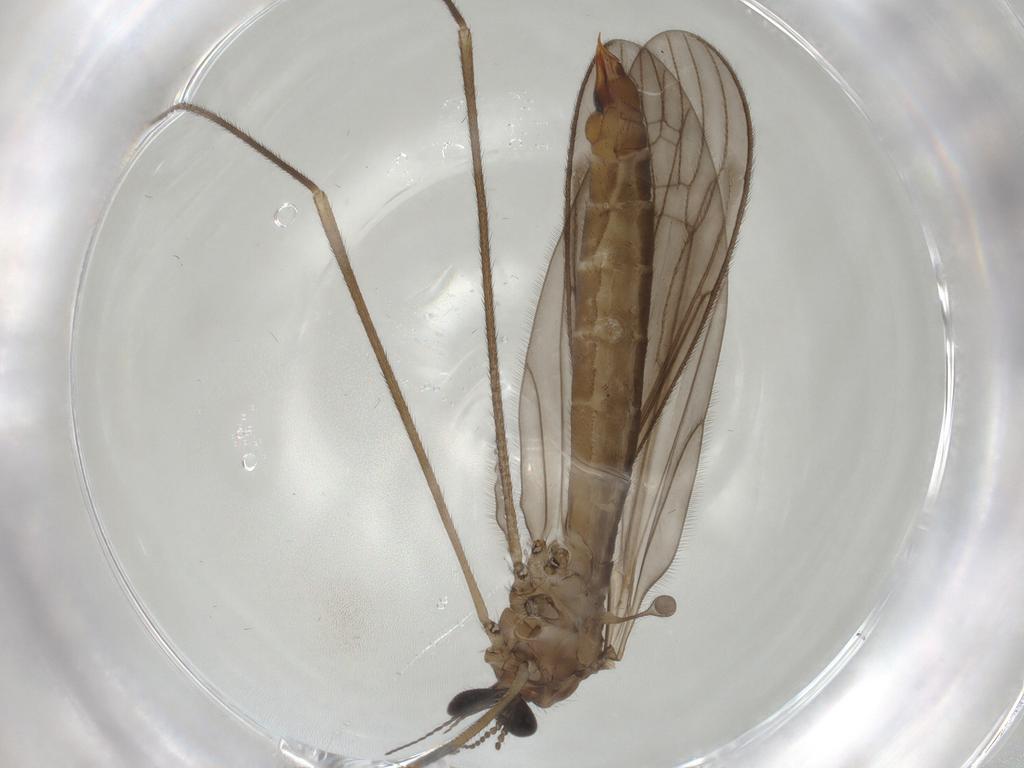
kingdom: Animalia
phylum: Arthropoda
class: Insecta
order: Diptera
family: Limoniidae
